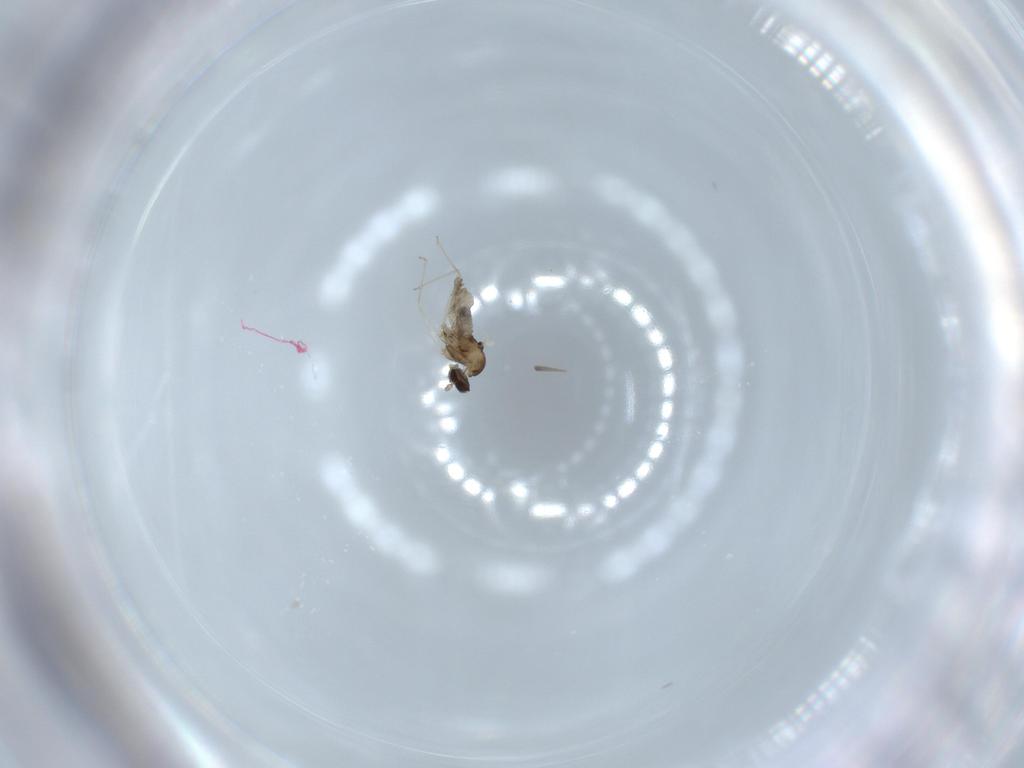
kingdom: Animalia
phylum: Arthropoda
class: Insecta
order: Diptera
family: Cecidomyiidae
